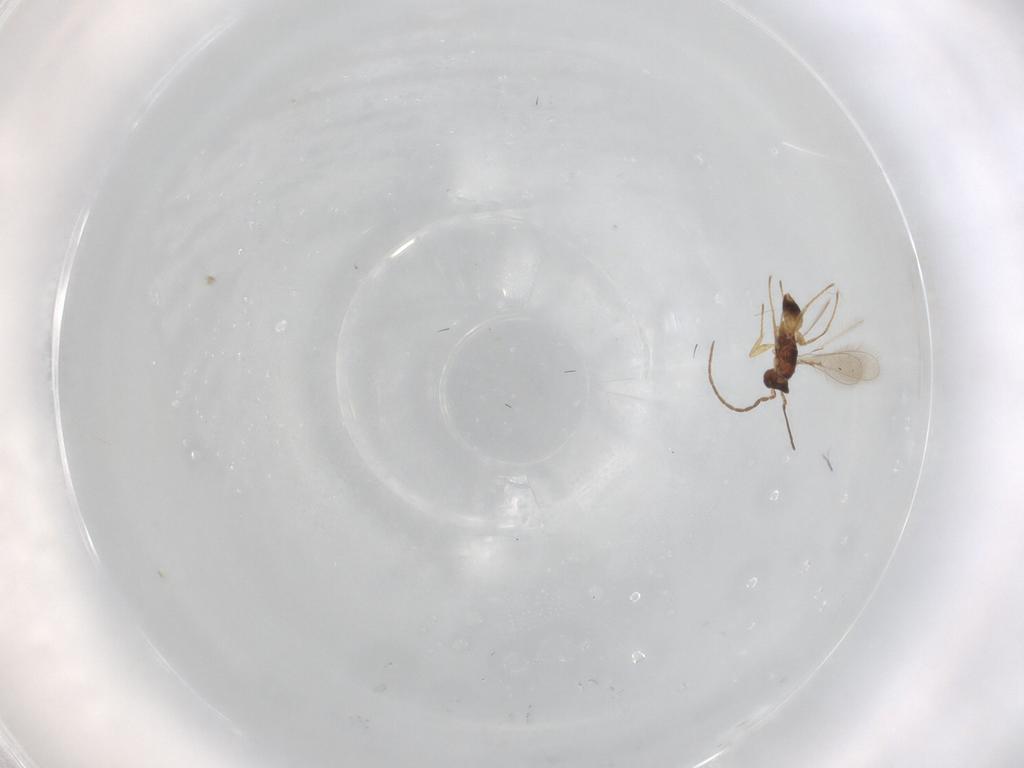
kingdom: Animalia
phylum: Arthropoda
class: Insecta
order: Hymenoptera
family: Mymaridae
